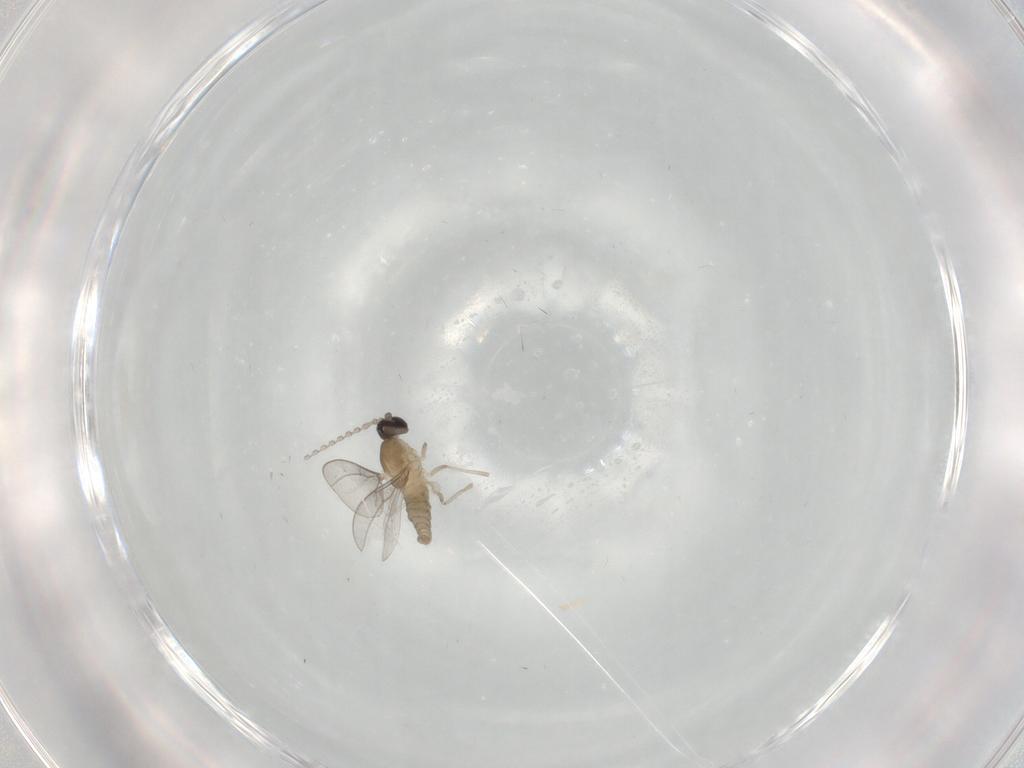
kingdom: Animalia
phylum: Arthropoda
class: Insecta
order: Diptera
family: Cecidomyiidae
